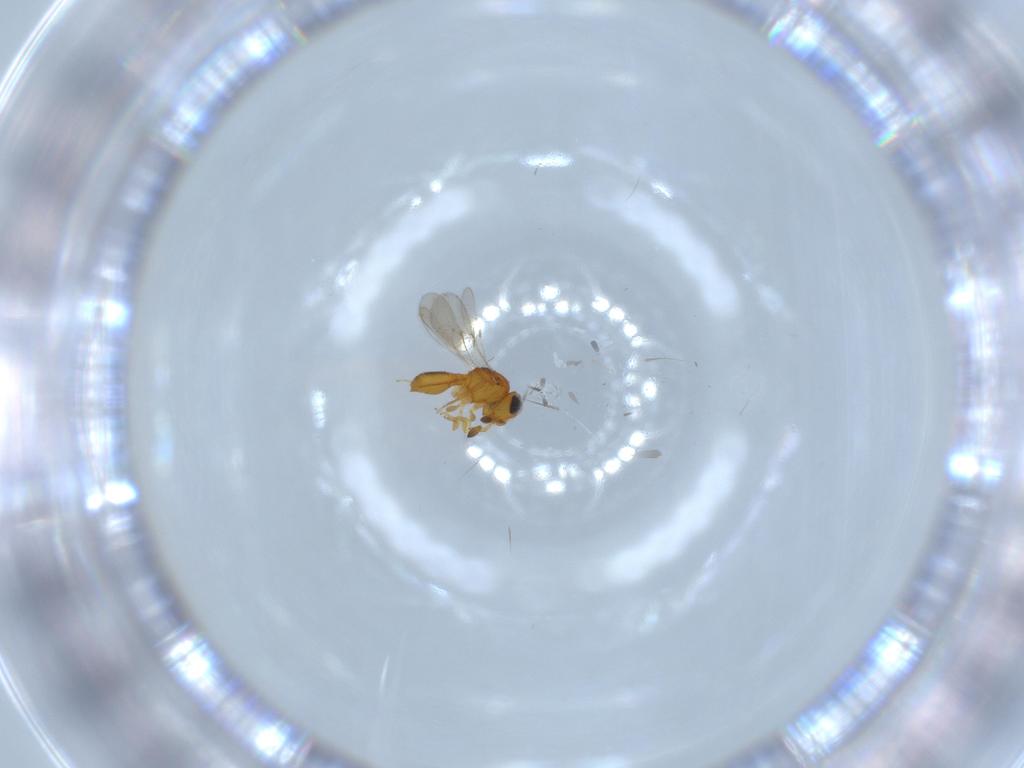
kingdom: Animalia
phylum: Arthropoda
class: Insecta
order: Hymenoptera
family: Scelionidae
